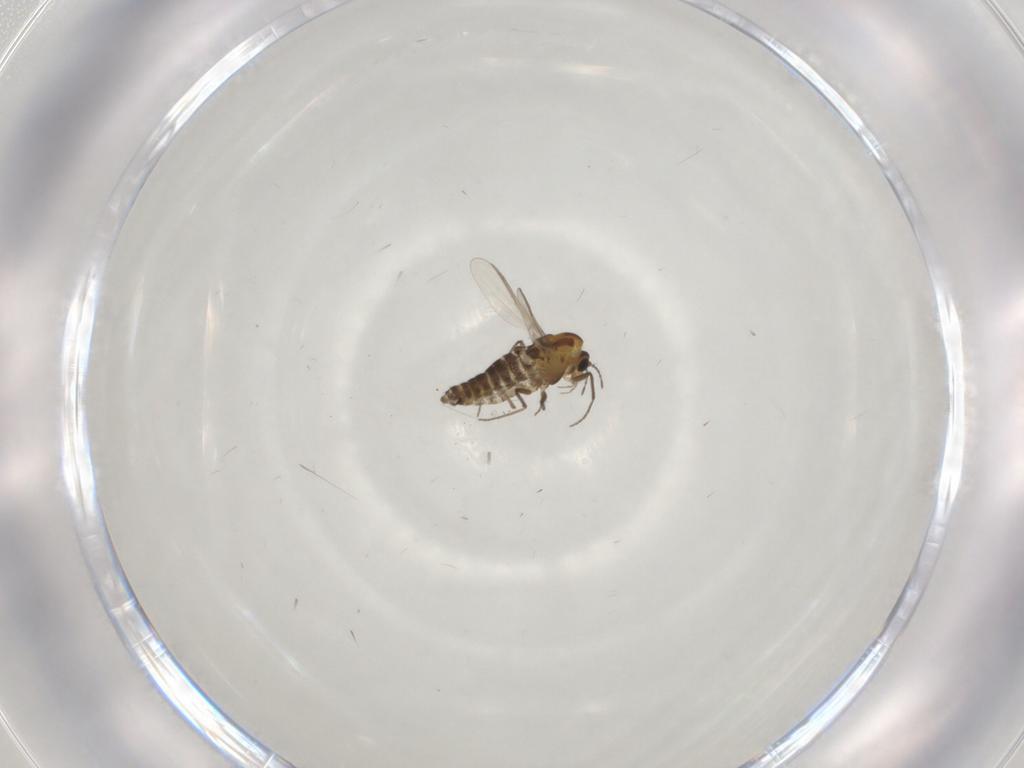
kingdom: Animalia
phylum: Arthropoda
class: Insecta
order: Diptera
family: Chironomidae
